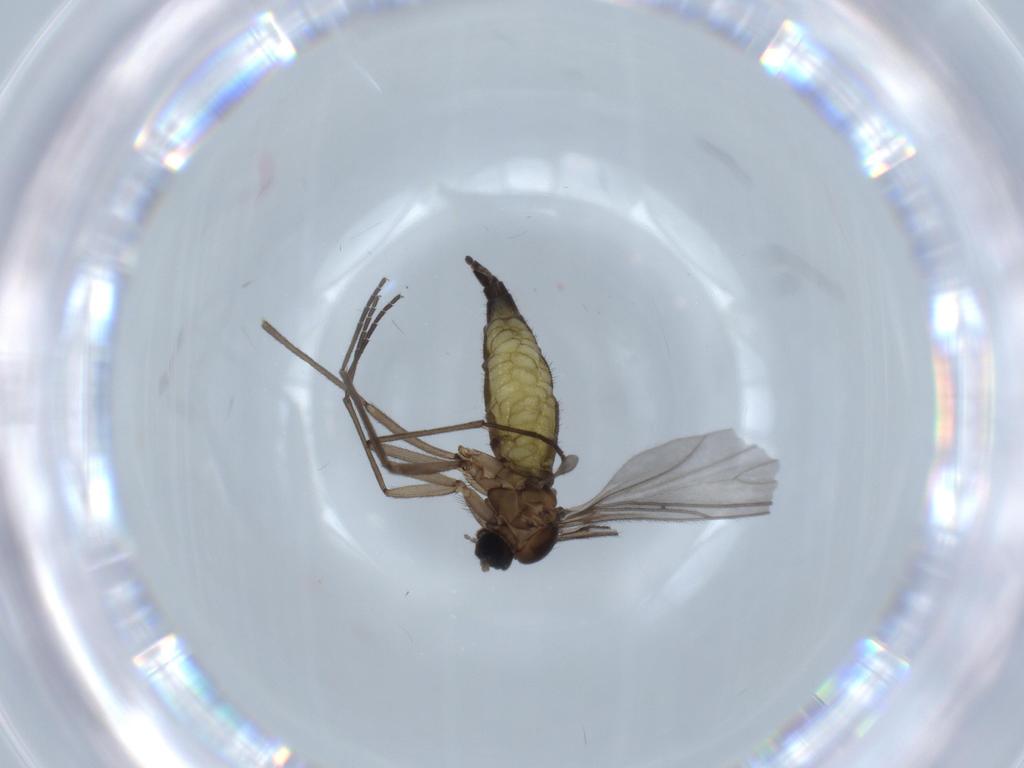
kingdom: Animalia
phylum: Arthropoda
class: Insecta
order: Diptera
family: Sciaridae
